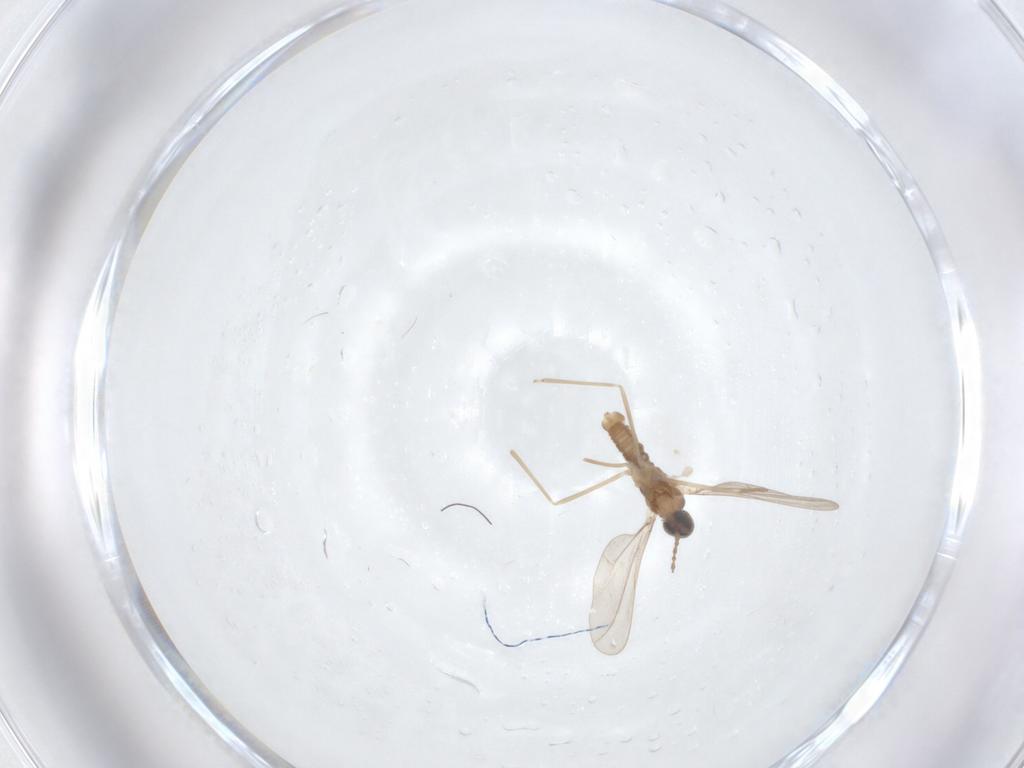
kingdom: Animalia
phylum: Arthropoda
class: Insecta
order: Diptera
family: Cecidomyiidae
